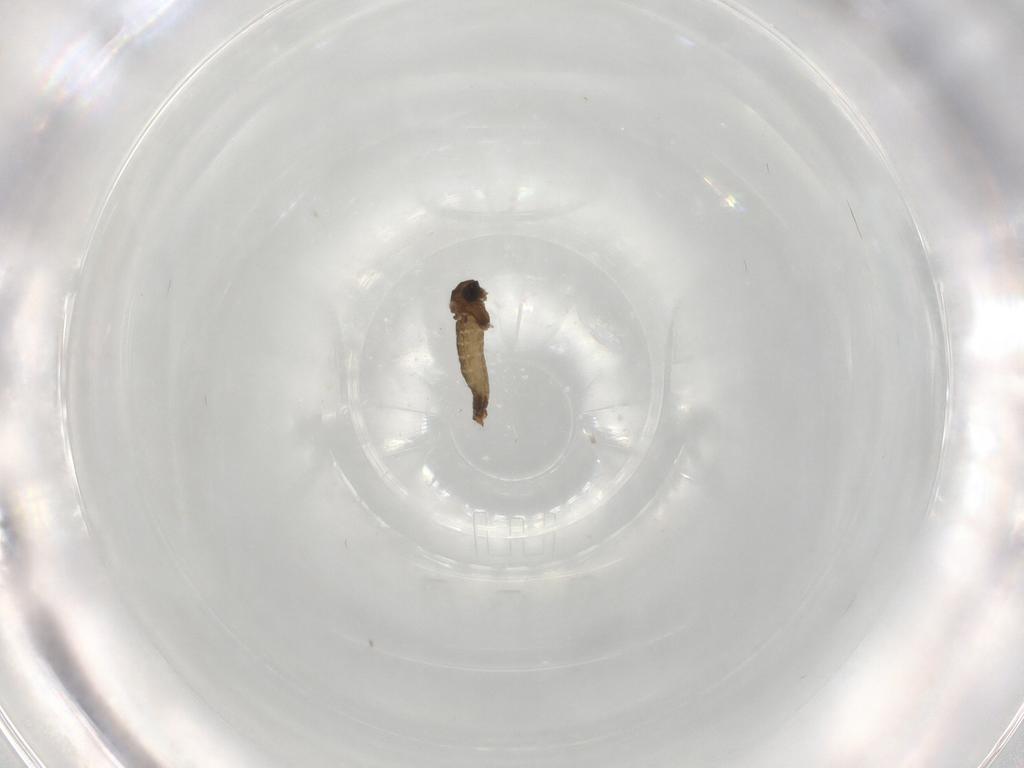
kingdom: Animalia
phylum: Arthropoda
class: Insecta
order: Diptera
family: Chironomidae
